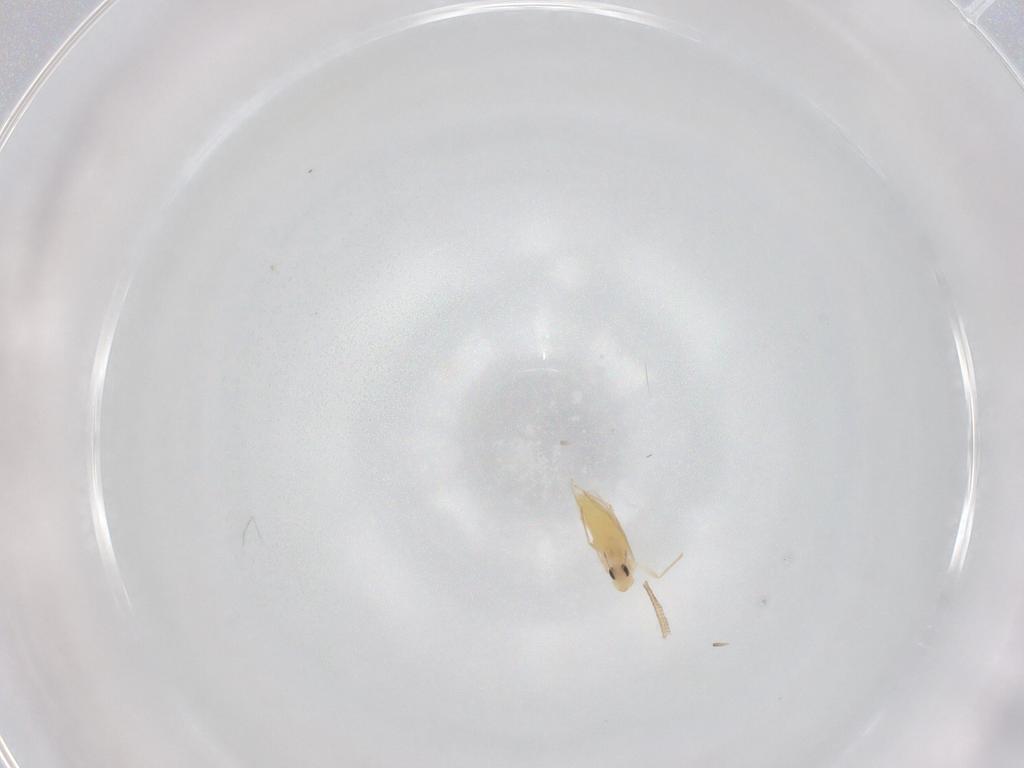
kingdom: Animalia
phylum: Arthropoda
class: Insecta
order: Diptera
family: Chironomidae
